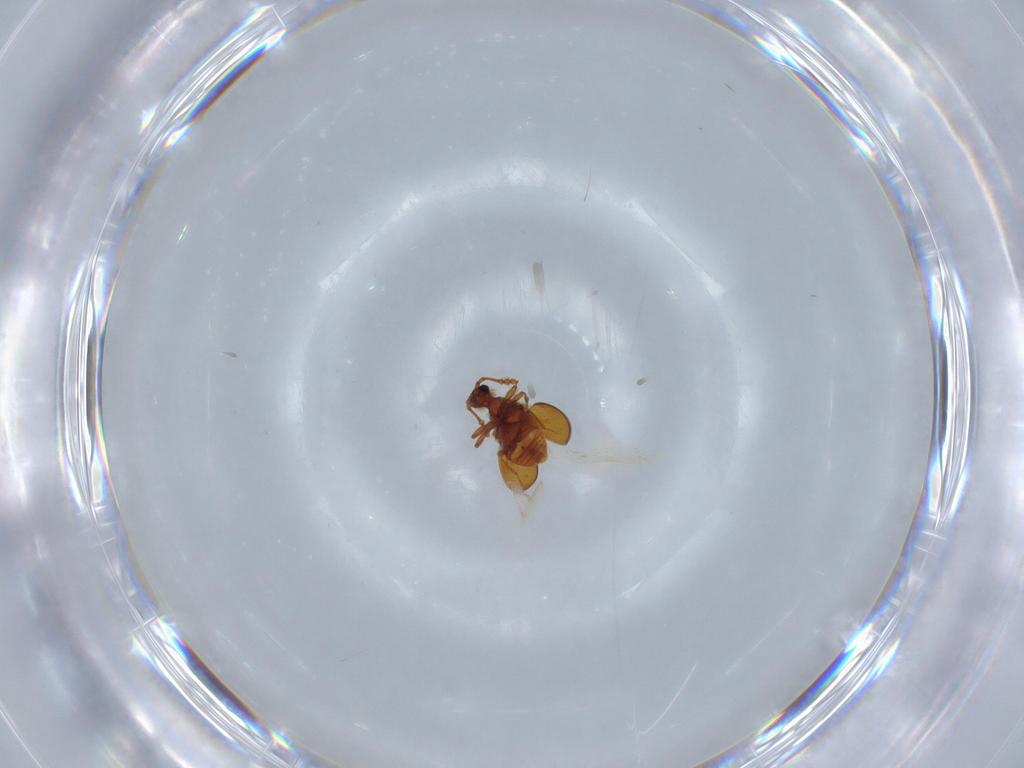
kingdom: Animalia
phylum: Arthropoda
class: Insecta
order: Coleoptera
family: Staphylinidae
